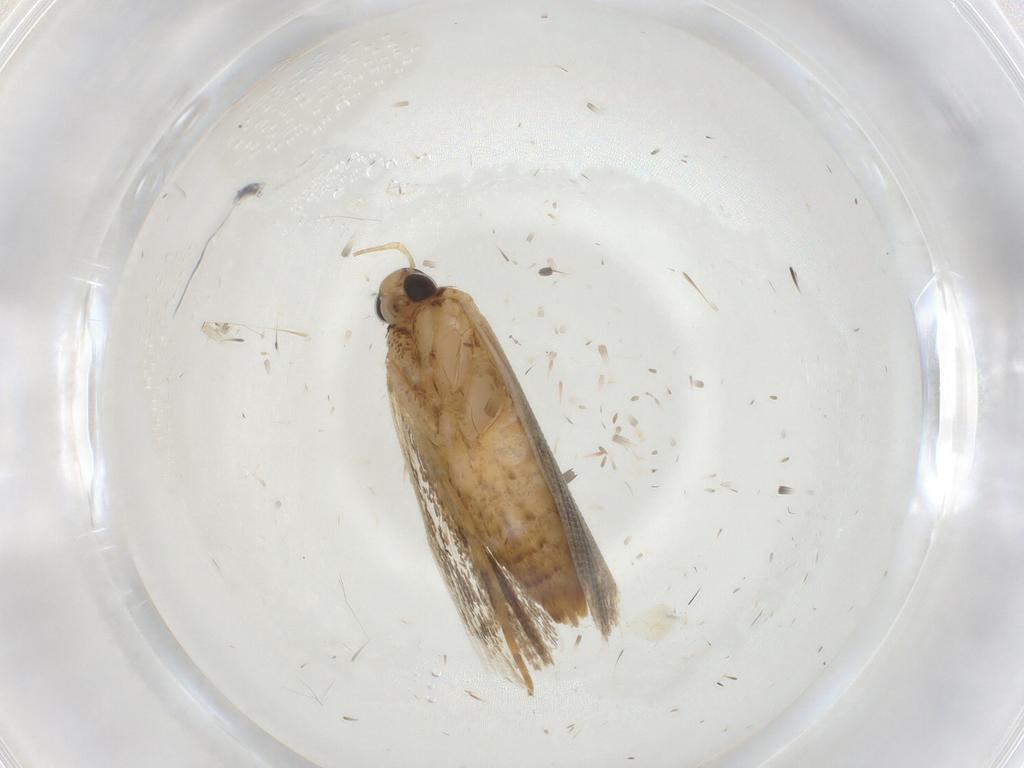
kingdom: Animalia
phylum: Arthropoda
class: Insecta
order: Lepidoptera
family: Gelechiidae
